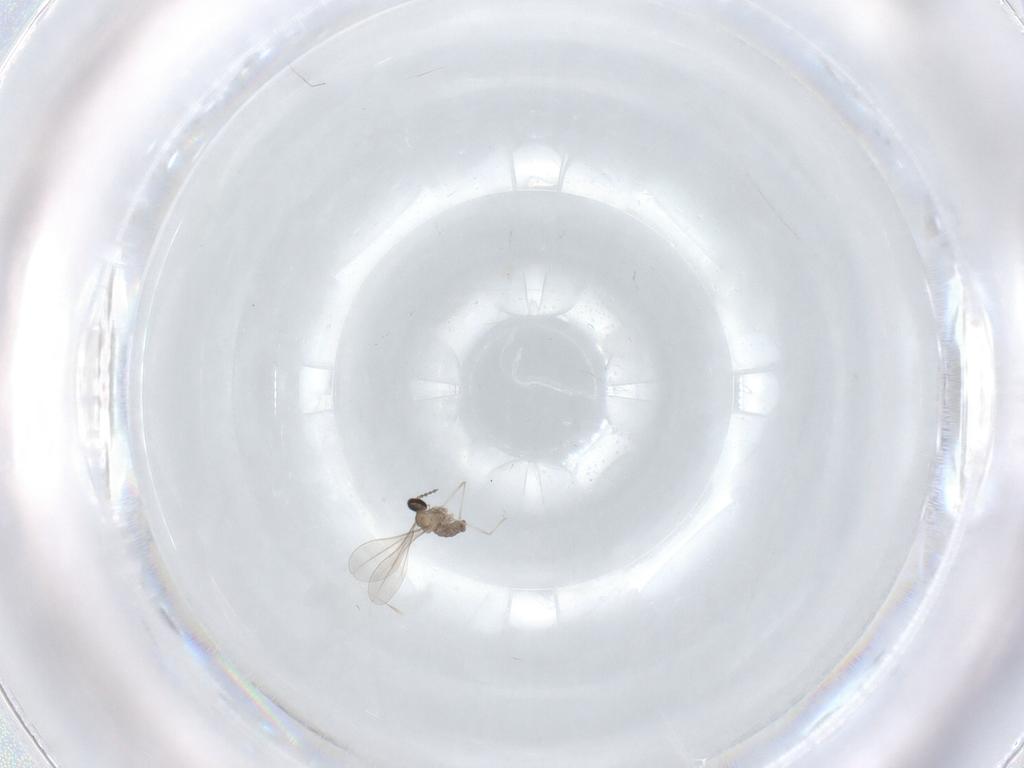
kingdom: Animalia
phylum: Arthropoda
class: Insecta
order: Diptera
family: Cecidomyiidae
